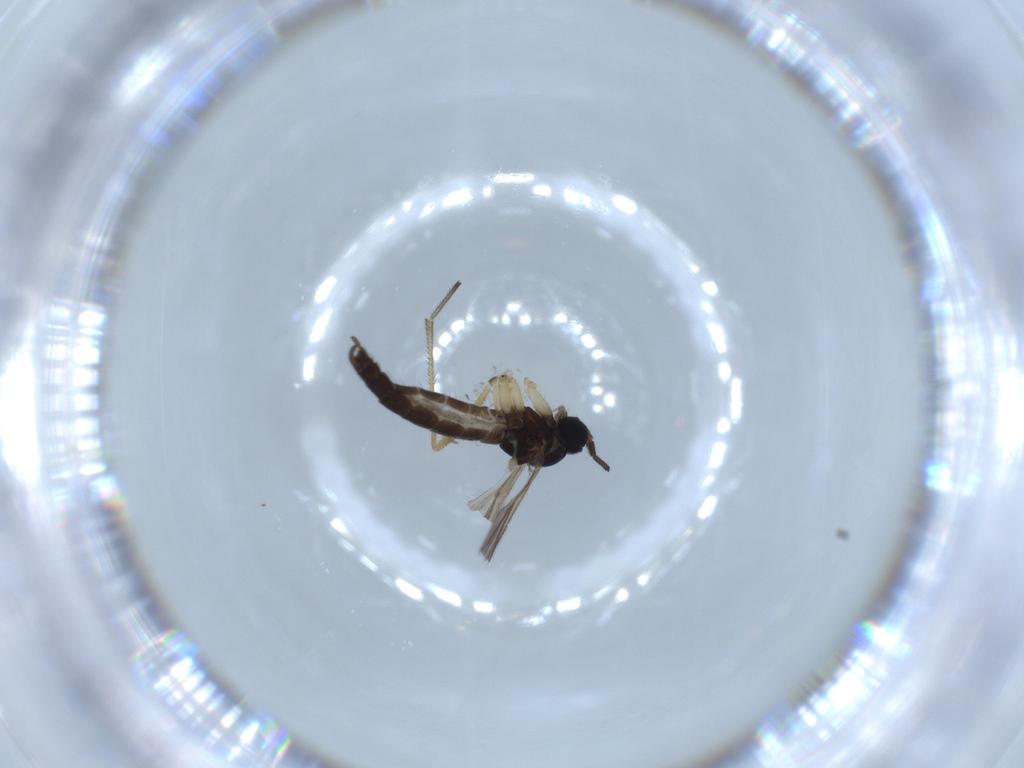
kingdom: Animalia
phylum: Arthropoda
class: Insecta
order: Diptera
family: Sciaridae
